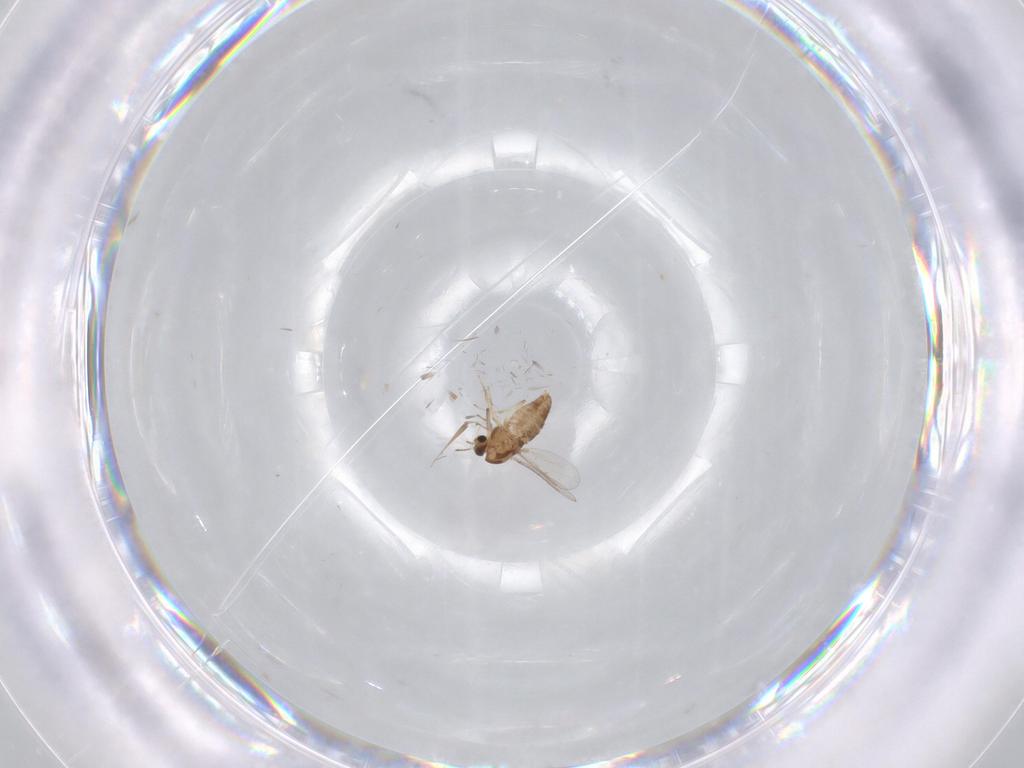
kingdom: Animalia
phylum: Arthropoda
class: Insecta
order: Diptera
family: Chironomidae
